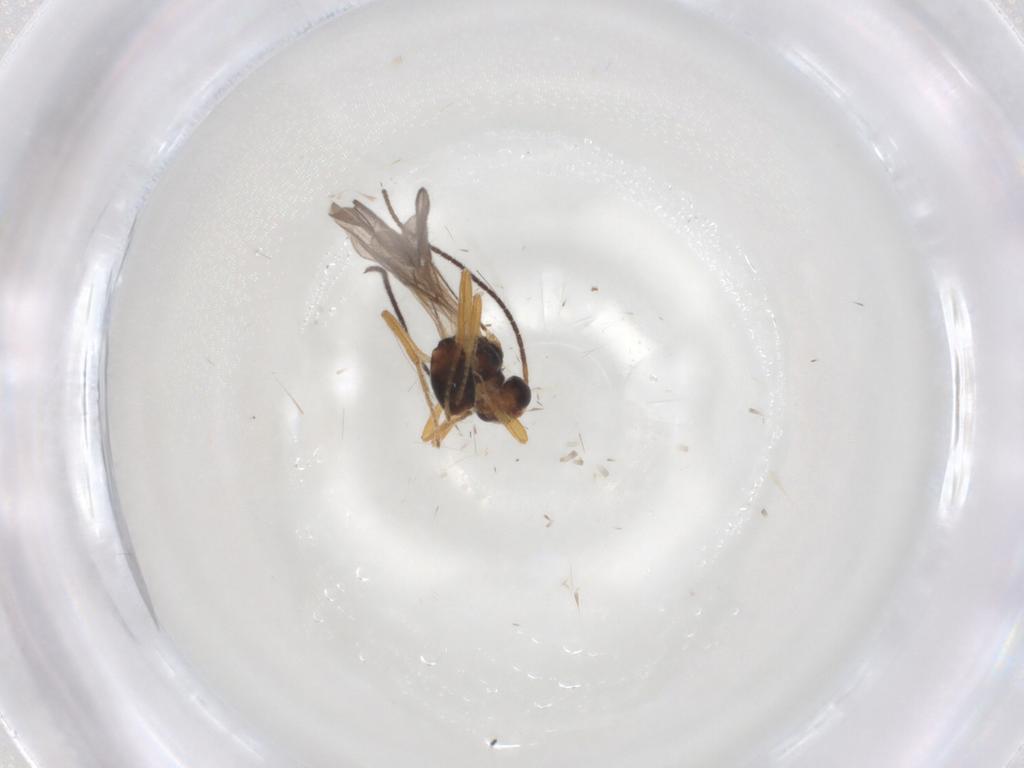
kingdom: Animalia
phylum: Arthropoda
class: Insecta
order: Hymenoptera
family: Braconidae
